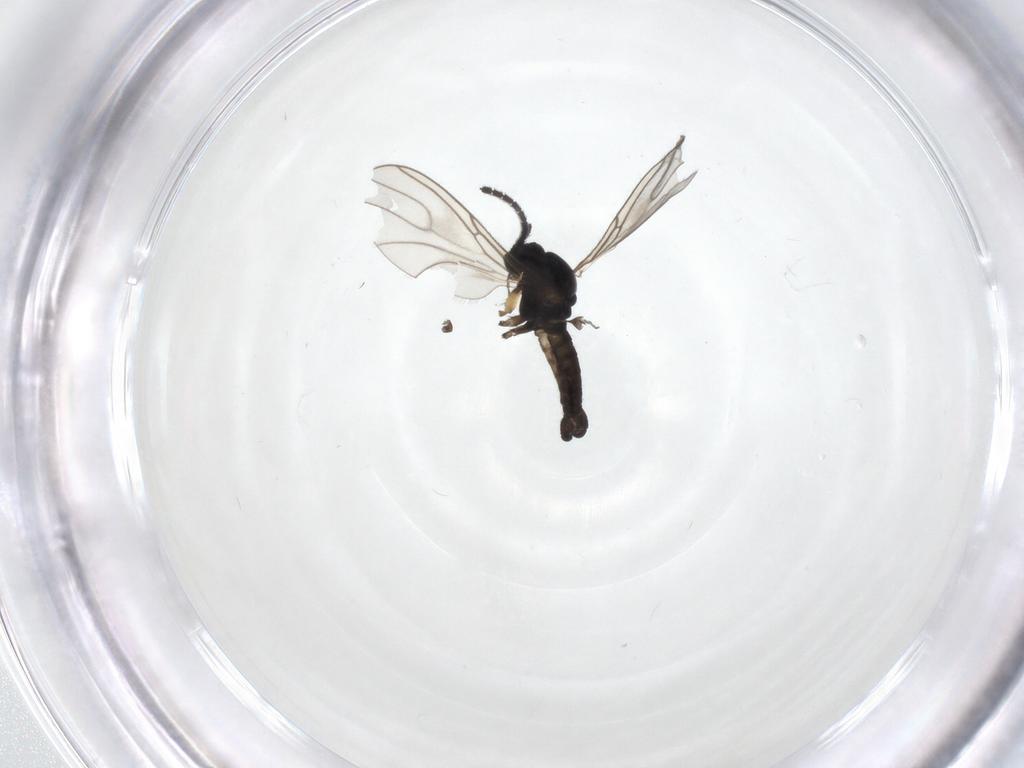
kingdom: Animalia
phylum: Arthropoda
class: Insecta
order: Diptera
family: Sciaridae
